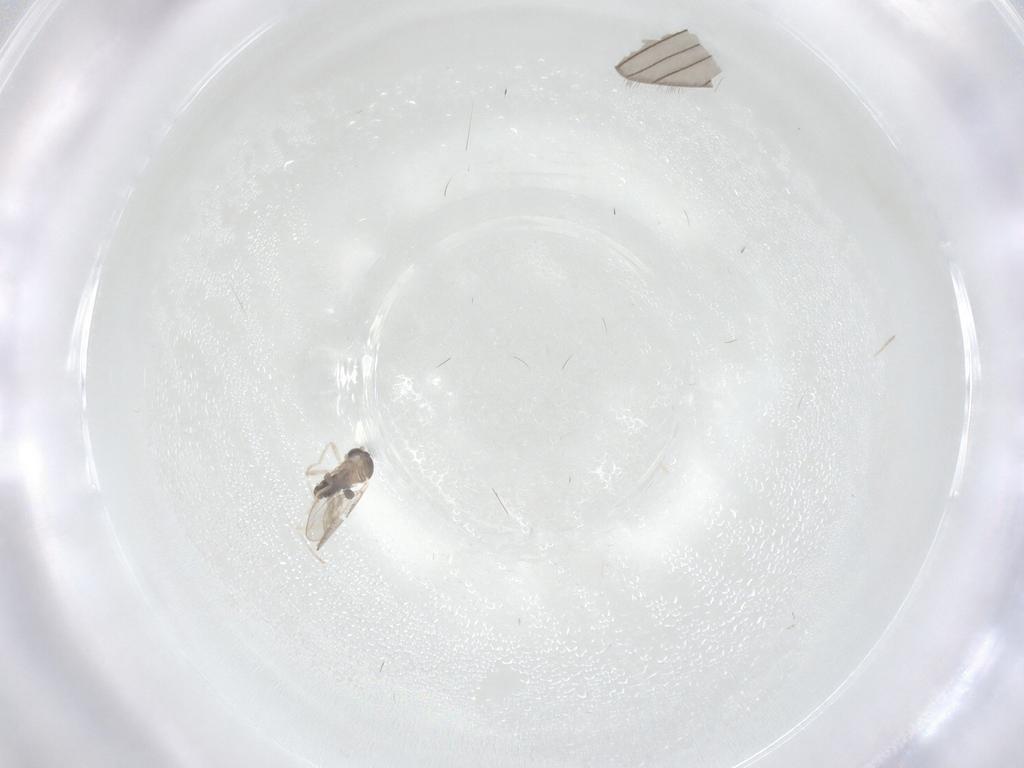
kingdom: Animalia
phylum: Arthropoda
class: Insecta
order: Diptera
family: Cecidomyiidae
